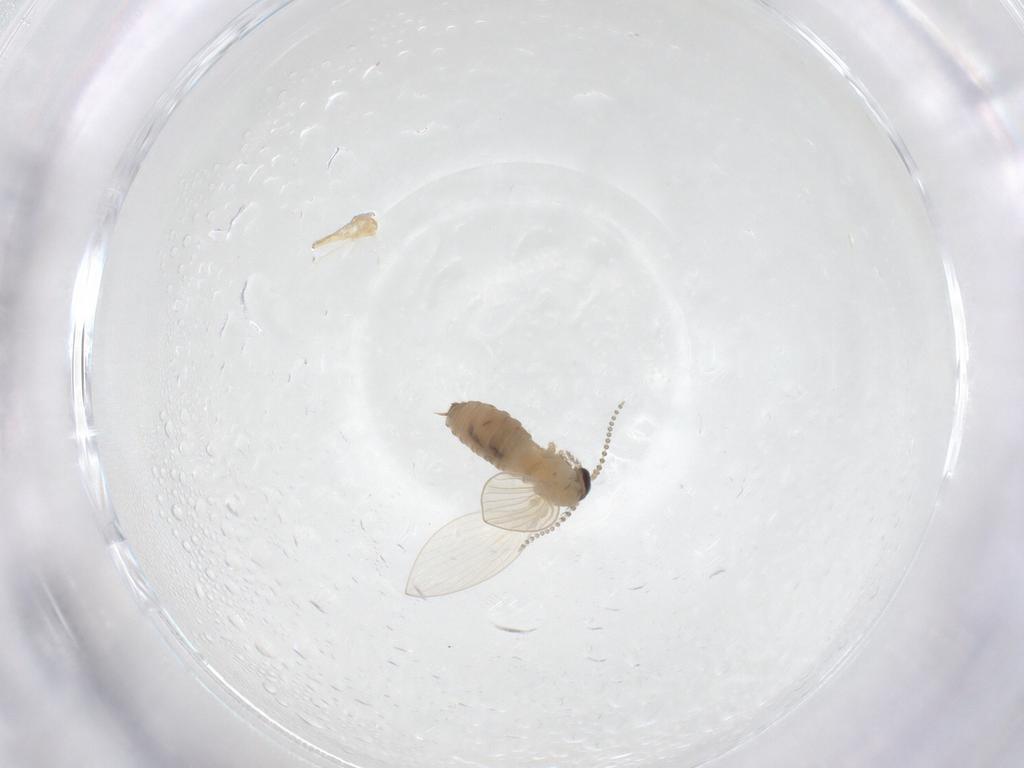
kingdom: Animalia
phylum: Arthropoda
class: Insecta
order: Diptera
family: Psychodidae
